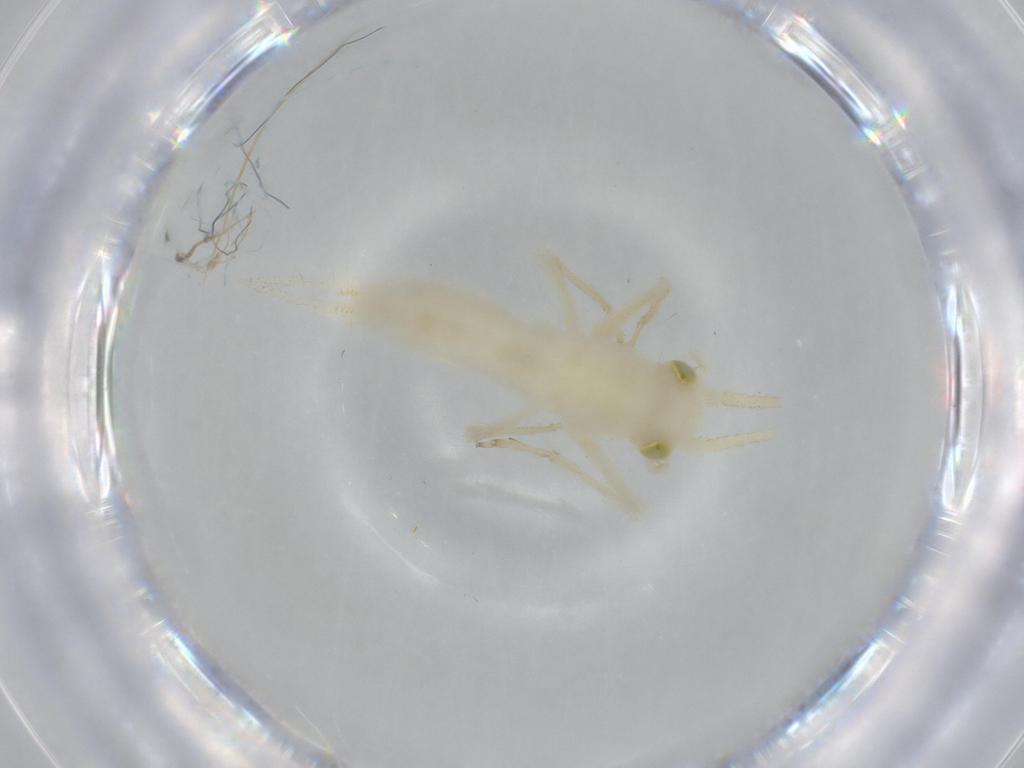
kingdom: Animalia
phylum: Arthropoda
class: Insecta
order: Orthoptera
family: Trigonidiidae
